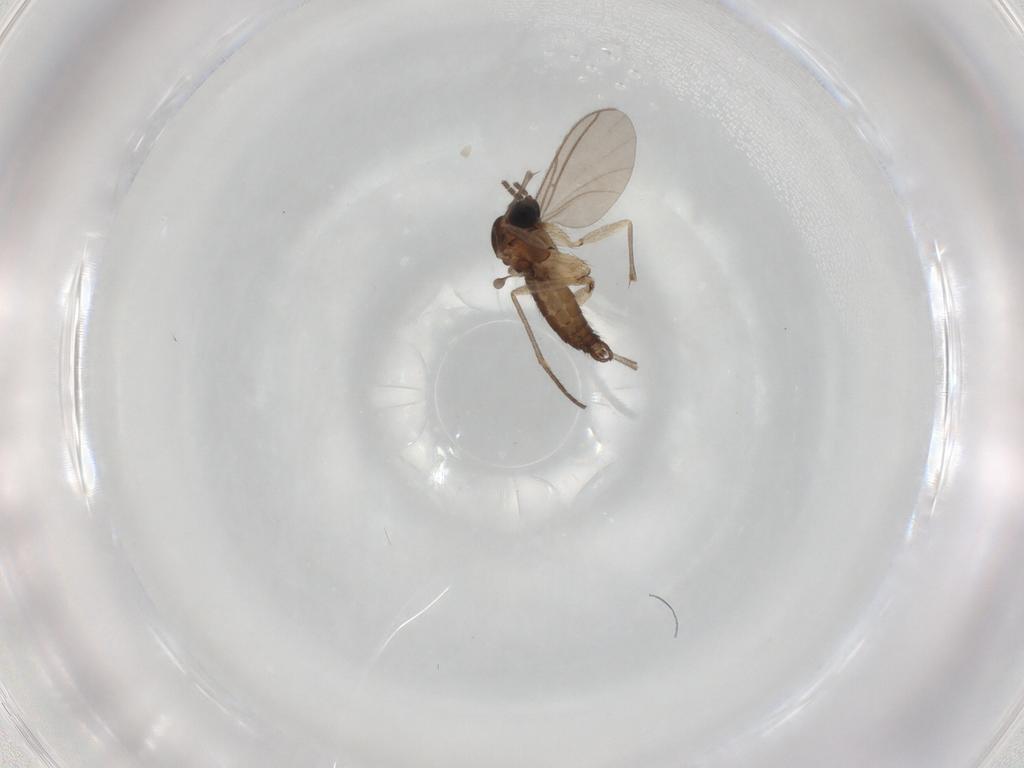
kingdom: Animalia
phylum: Arthropoda
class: Insecta
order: Diptera
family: Sciaridae
